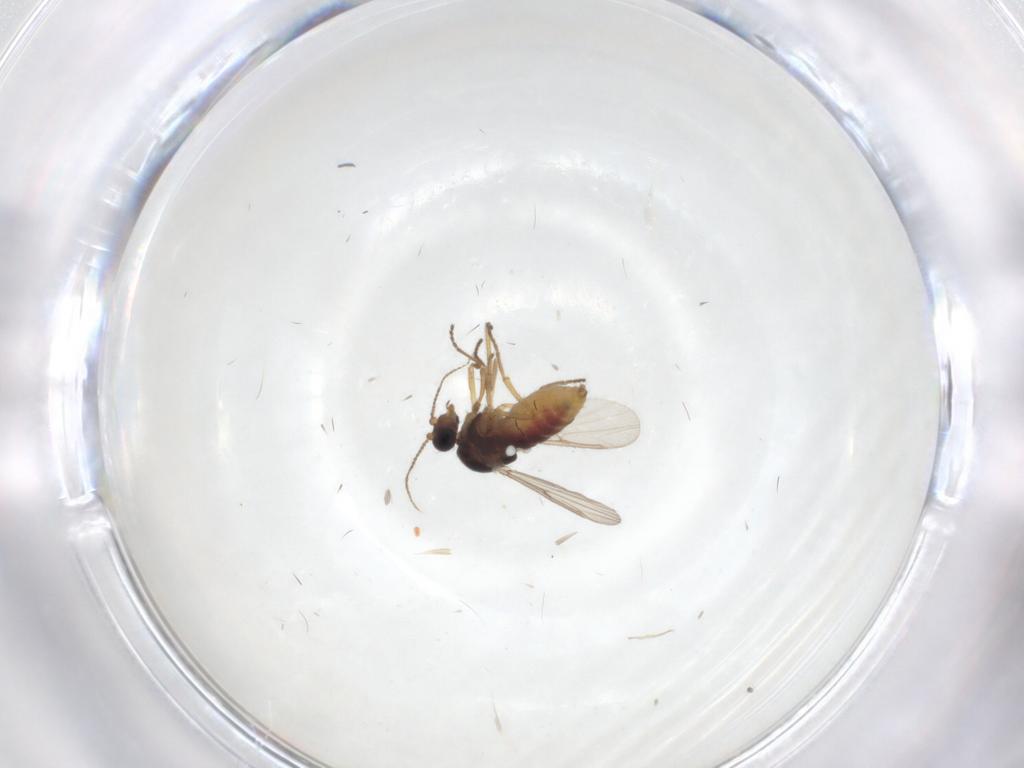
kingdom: Animalia
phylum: Arthropoda
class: Insecta
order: Diptera
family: Ceratopogonidae
